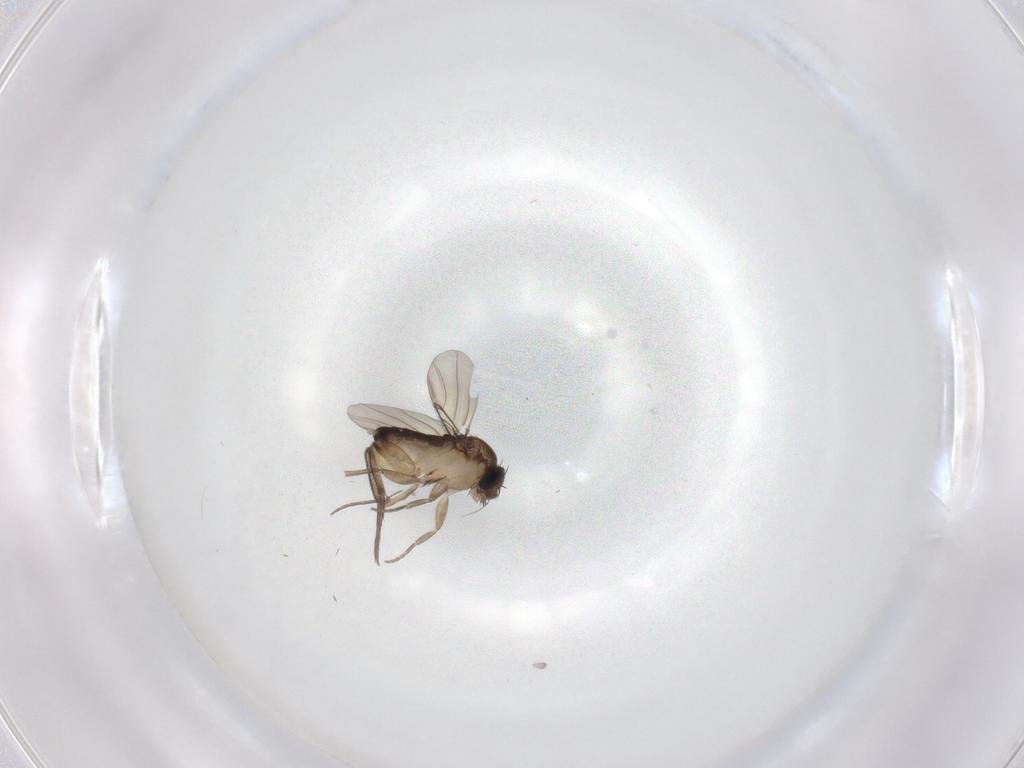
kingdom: Animalia
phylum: Arthropoda
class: Insecta
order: Diptera
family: Phoridae
